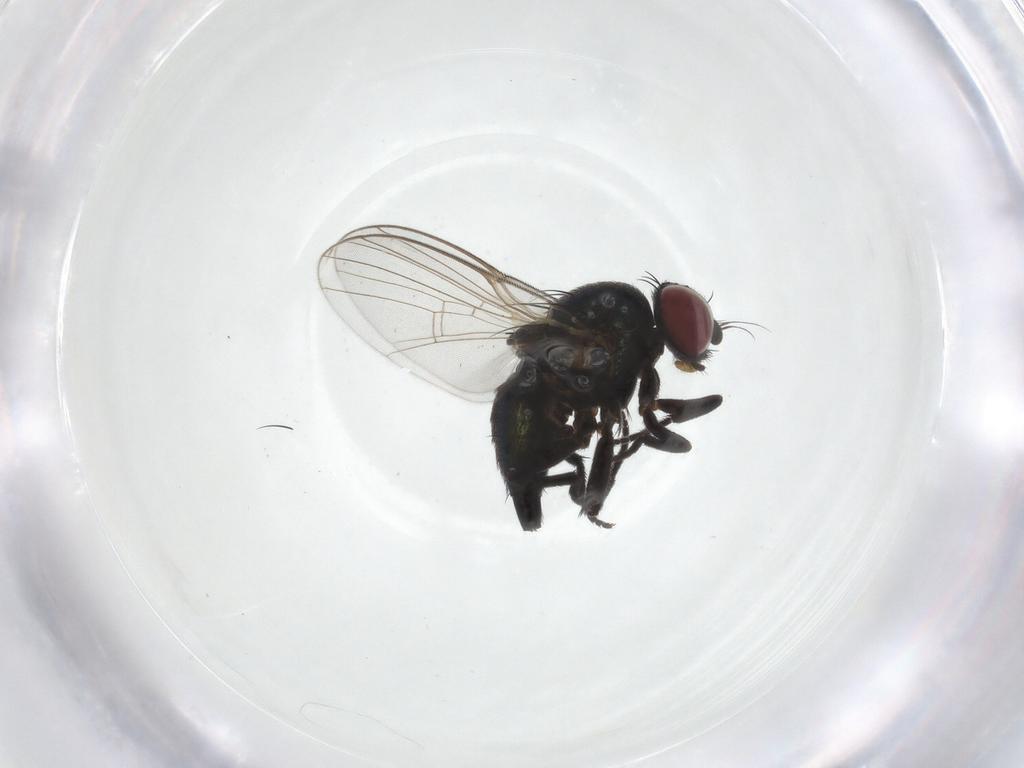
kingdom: Animalia
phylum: Arthropoda
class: Insecta
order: Diptera
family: Agromyzidae
